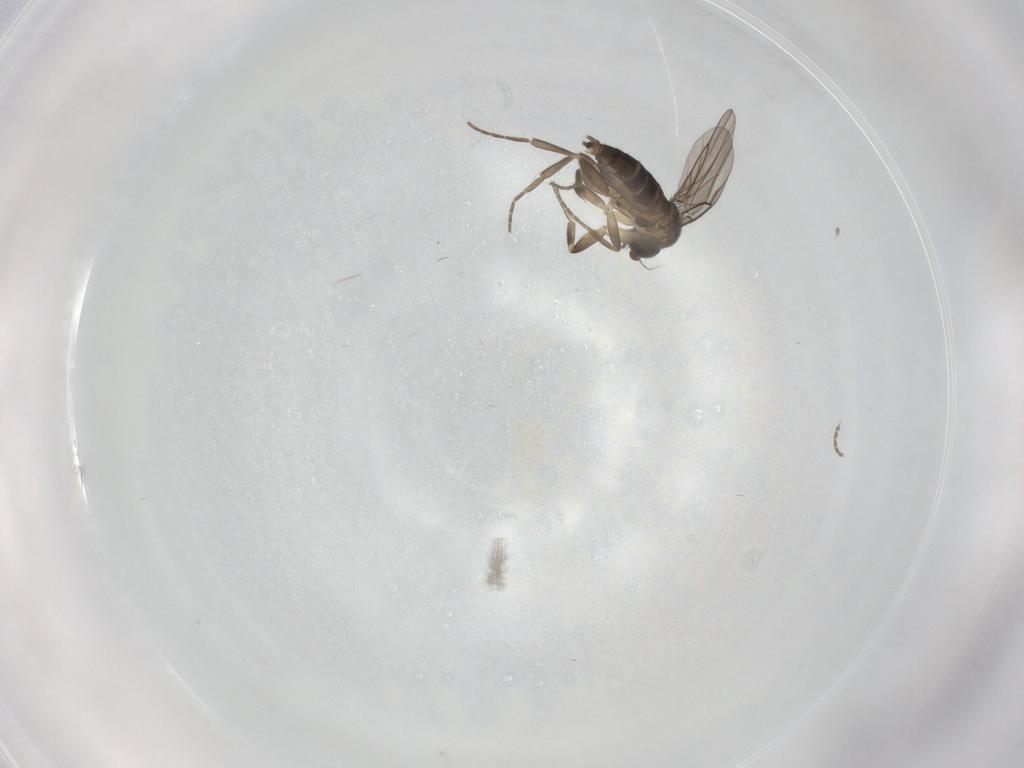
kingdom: Animalia
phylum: Arthropoda
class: Insecta
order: Diptera
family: Phoridae
